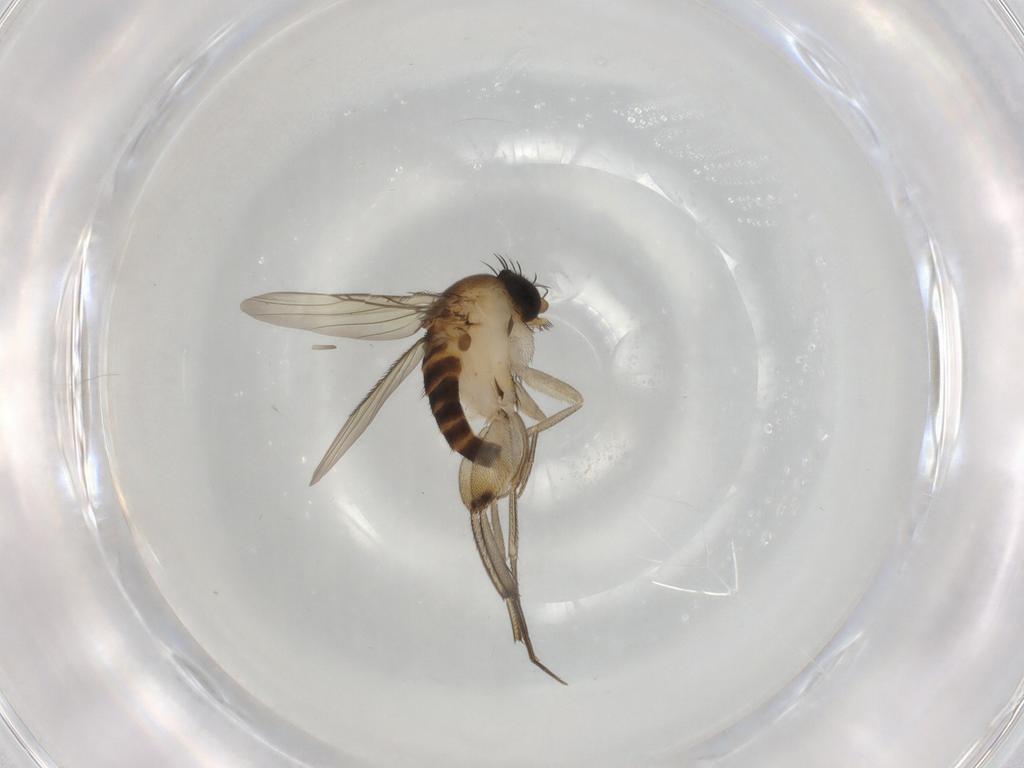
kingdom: Animalia
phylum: Arthropoda
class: Insecta
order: Diptera
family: Phoridae
